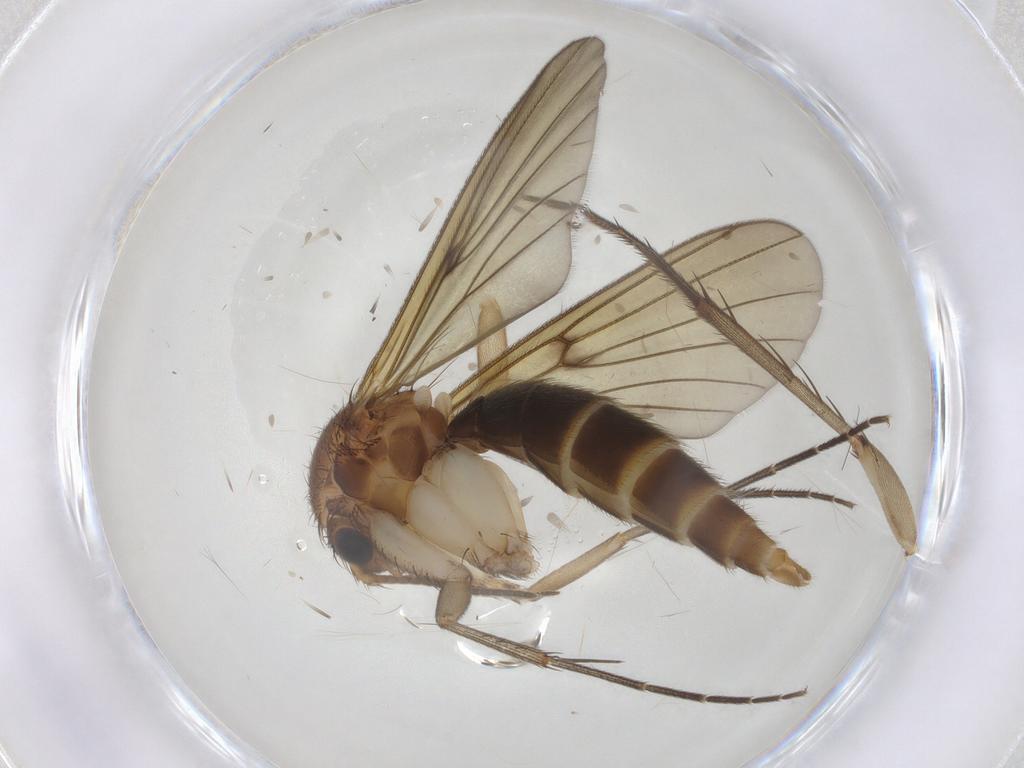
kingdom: Animalia
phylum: Arthropoda
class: Insecta
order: Diptera
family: Mycetophilidae
